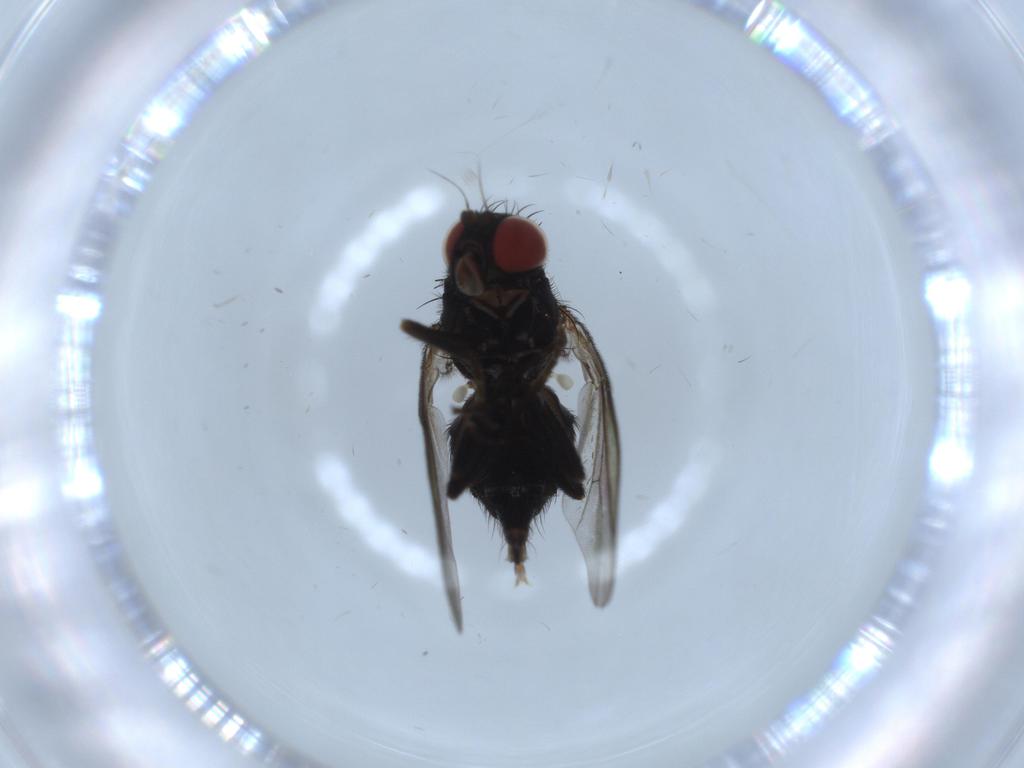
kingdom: Animalia
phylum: Arthropoda
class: Insecta
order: Diptera
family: Agromyzidae
